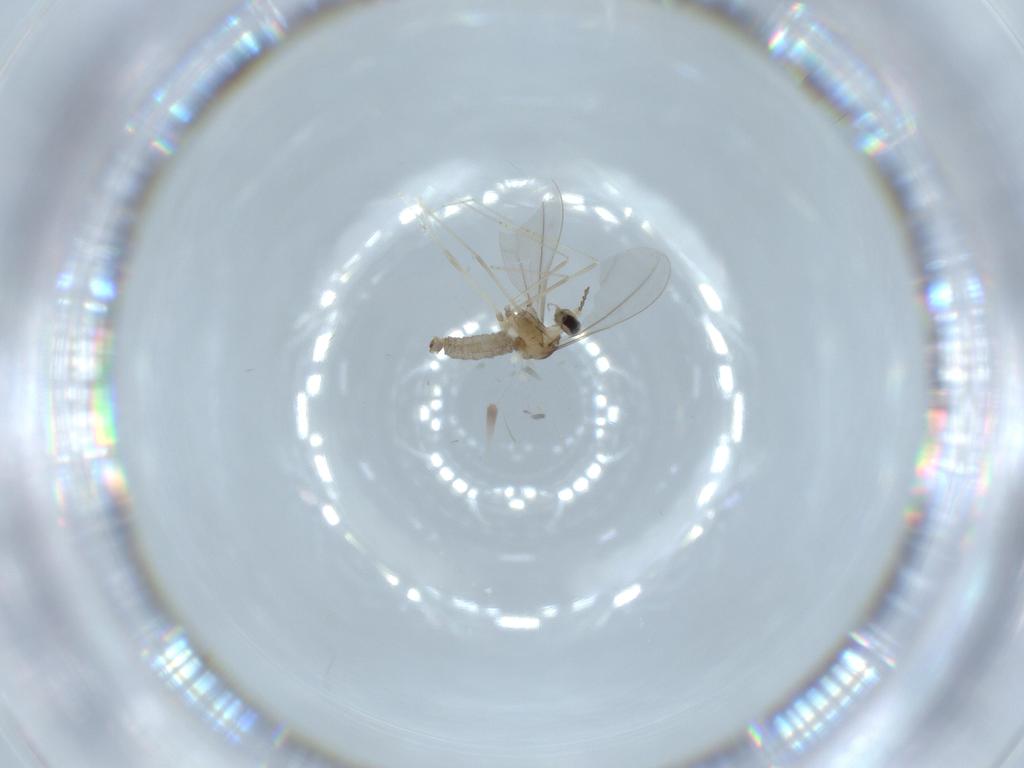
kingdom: Animalia
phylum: Arthropoda
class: Insecta
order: Diptera
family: Cecidomyiidae
